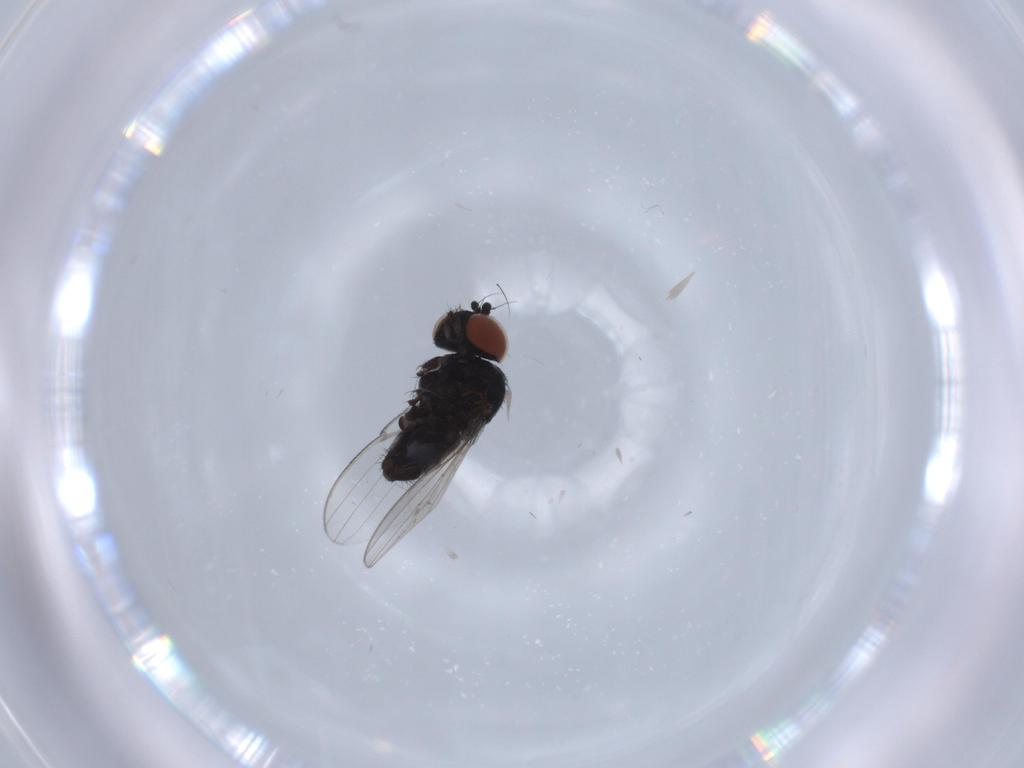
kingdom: Animalia
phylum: Arthropoda
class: Insecta
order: Diptera
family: Milichiidae
